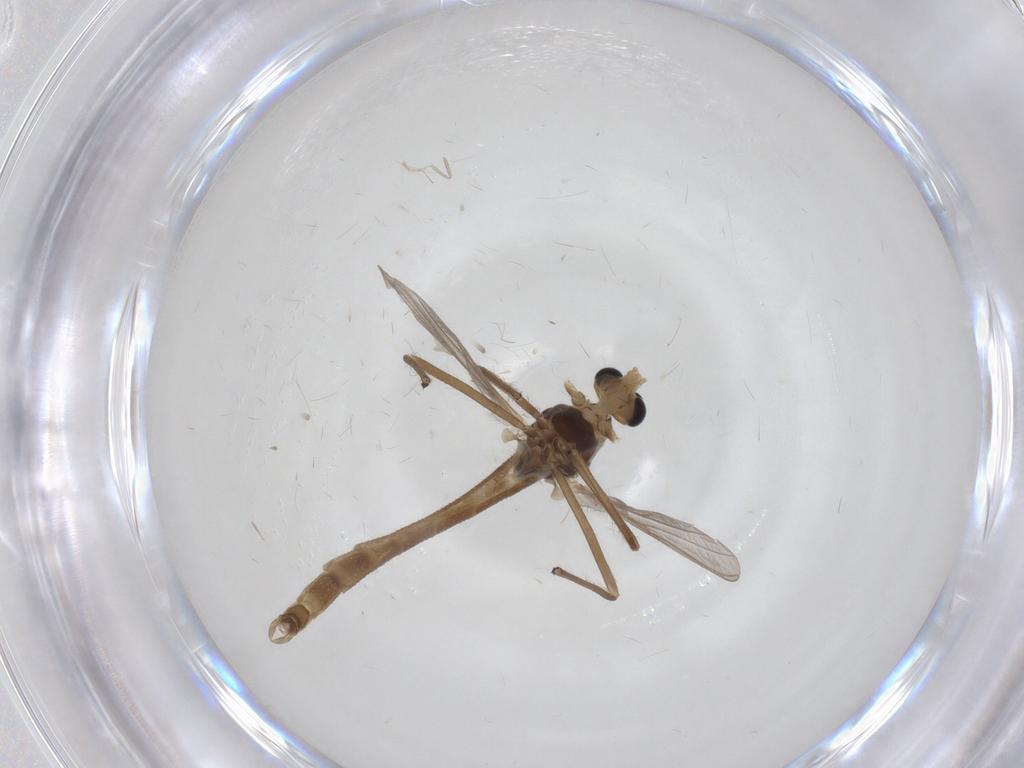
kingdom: Animalia
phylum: Arthropoda
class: Insecta
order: Diptera
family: Chironomidae
